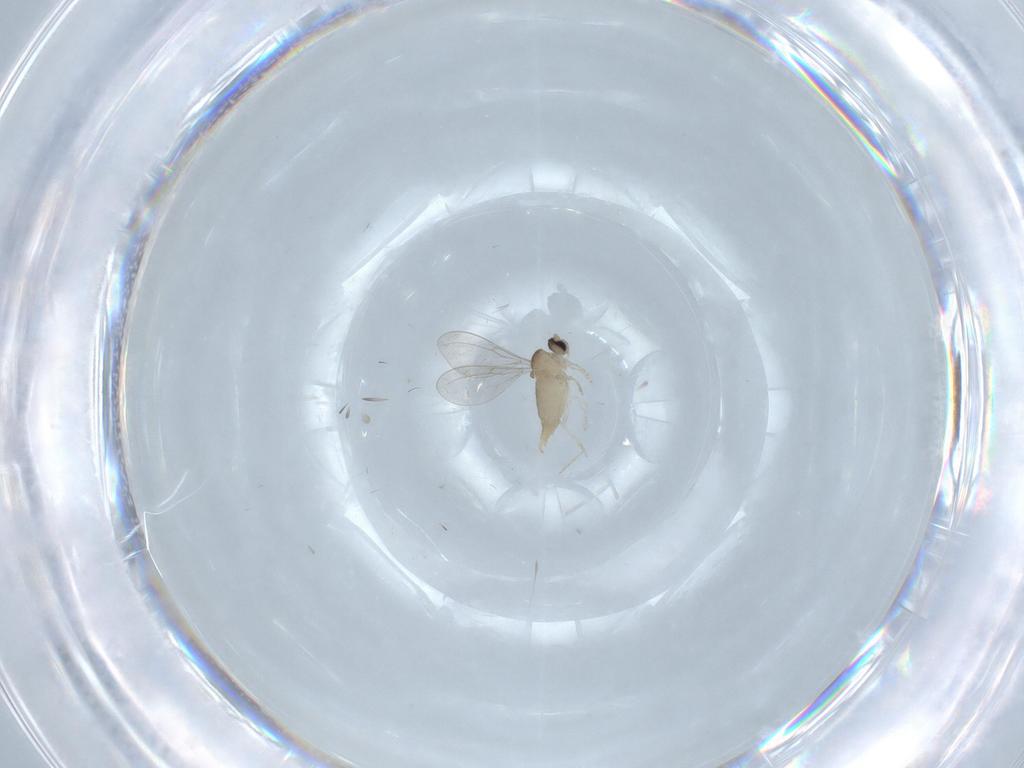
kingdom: Animalia
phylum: Arthropoda
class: Insecta
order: Diptera
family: Cecidomyiidae
